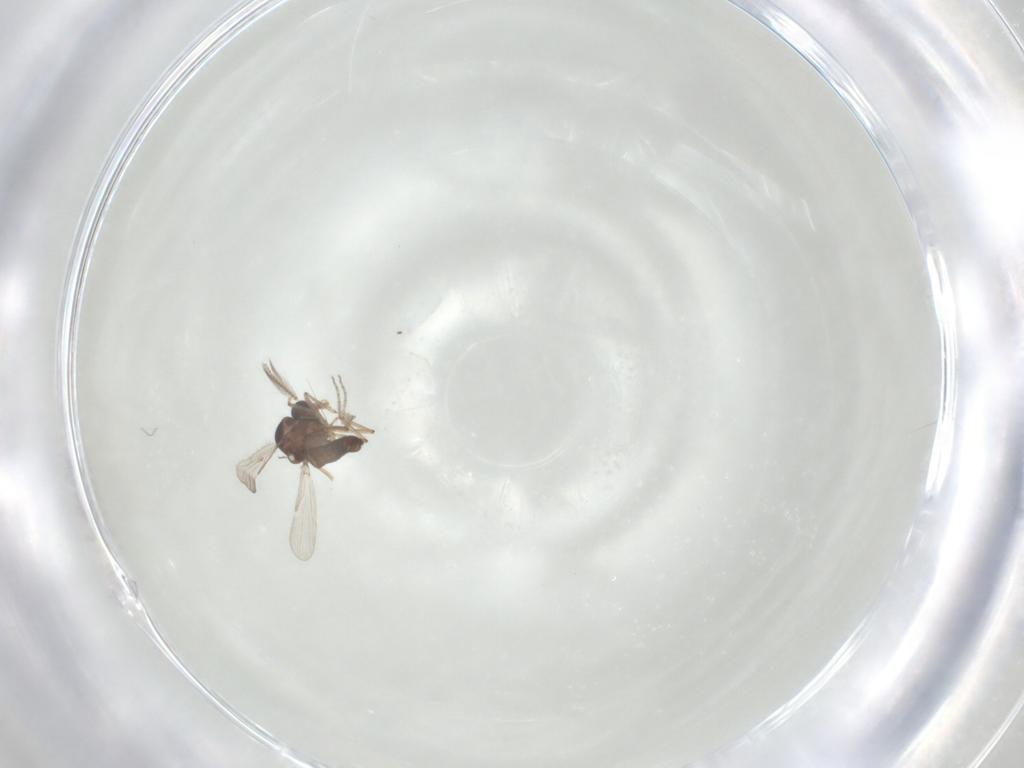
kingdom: Animalia
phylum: Arthropoda
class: Insecta
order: Diptera
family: Ceratopogonidae
